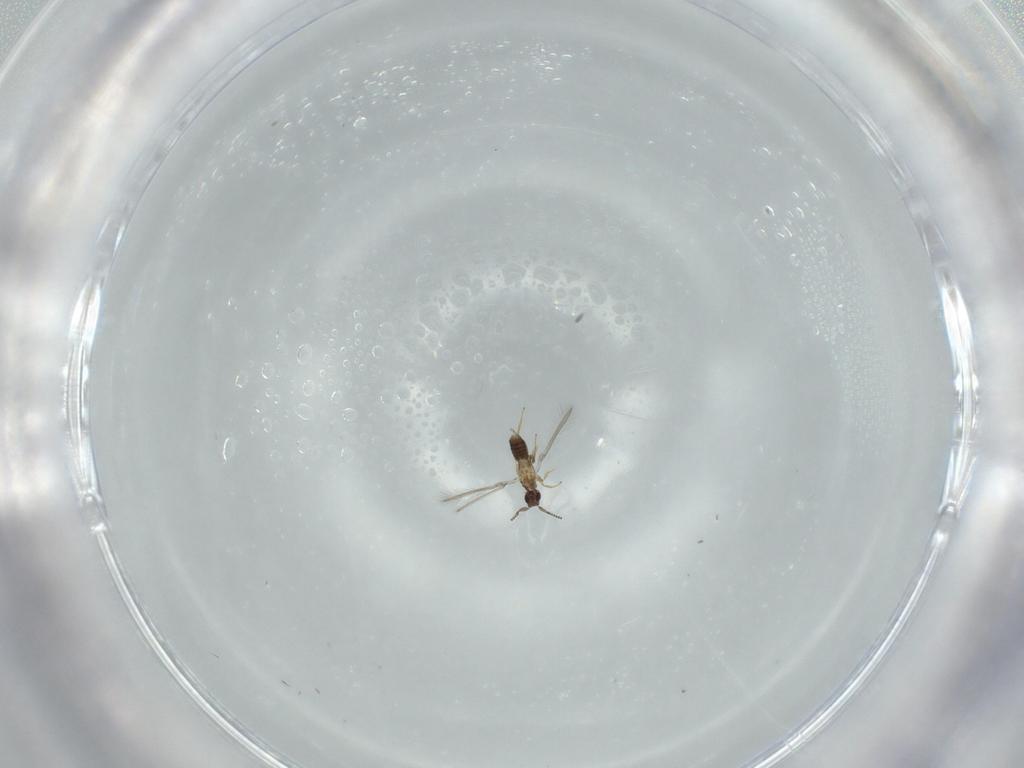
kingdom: Animalia
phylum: Arthropoda
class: Insecta
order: Hymenoptera
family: Mymaridae
